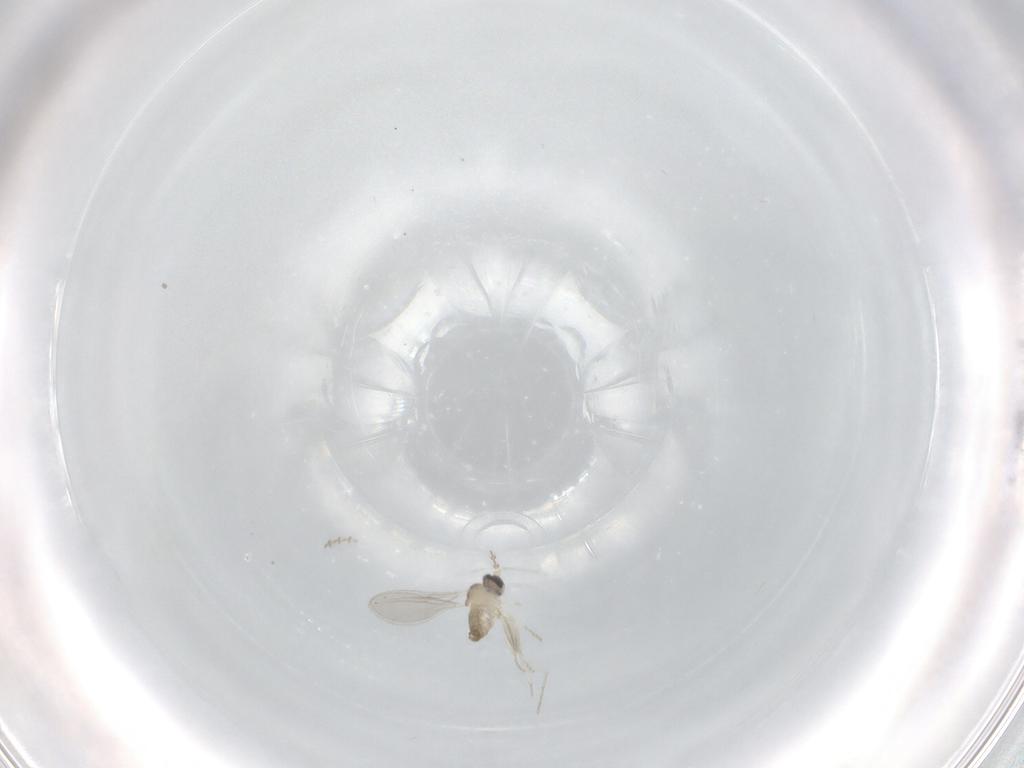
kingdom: Animalia
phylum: Arthropoda
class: Insecta
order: Diptera
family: Cecidomyiidae
